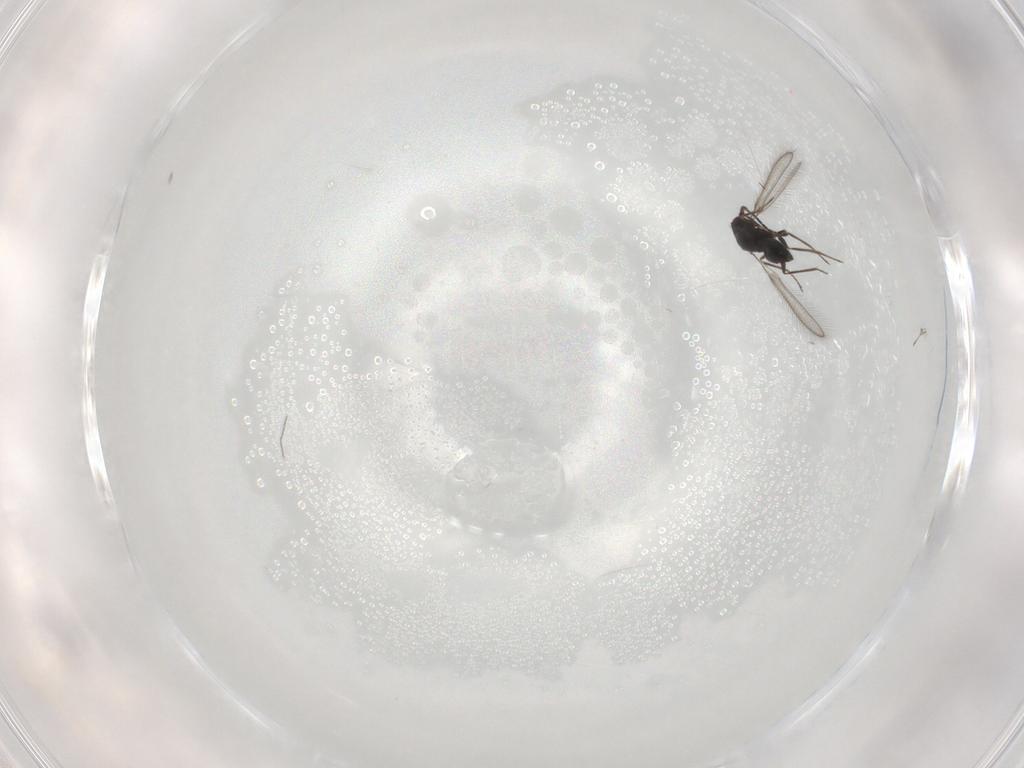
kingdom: Animalia
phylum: Arthropoda
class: Insecta
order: Hymenoptera
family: Mymaridae
